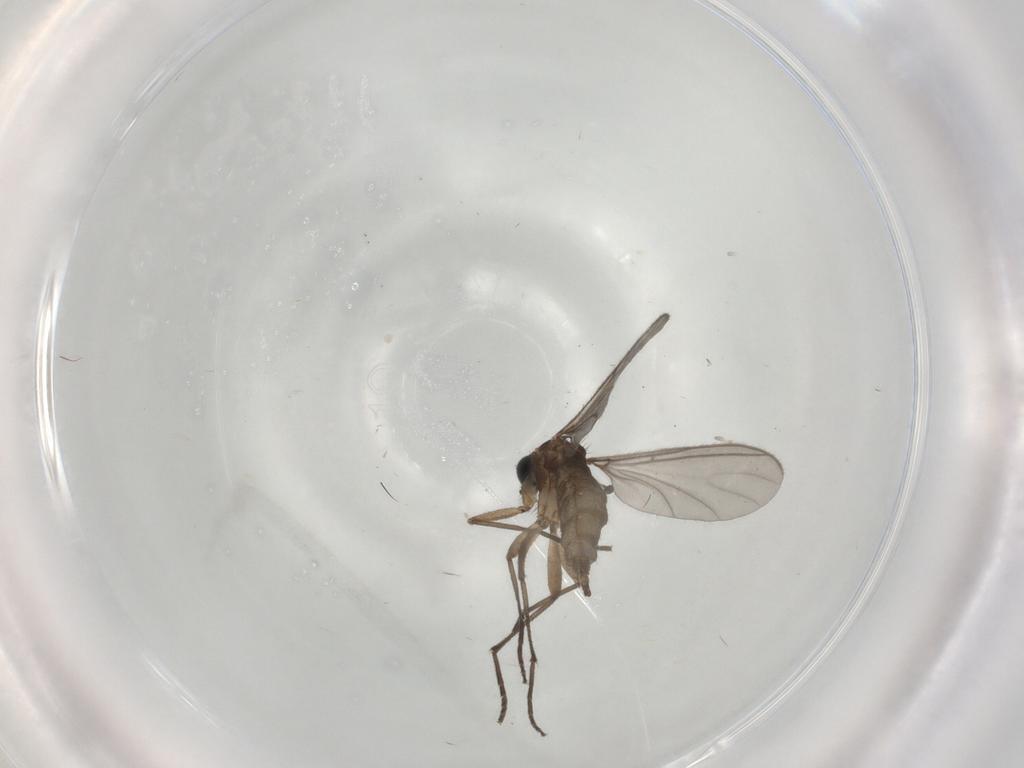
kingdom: Animalia
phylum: Arthropoda
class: Insecta
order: Diptera
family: Sciaridae
